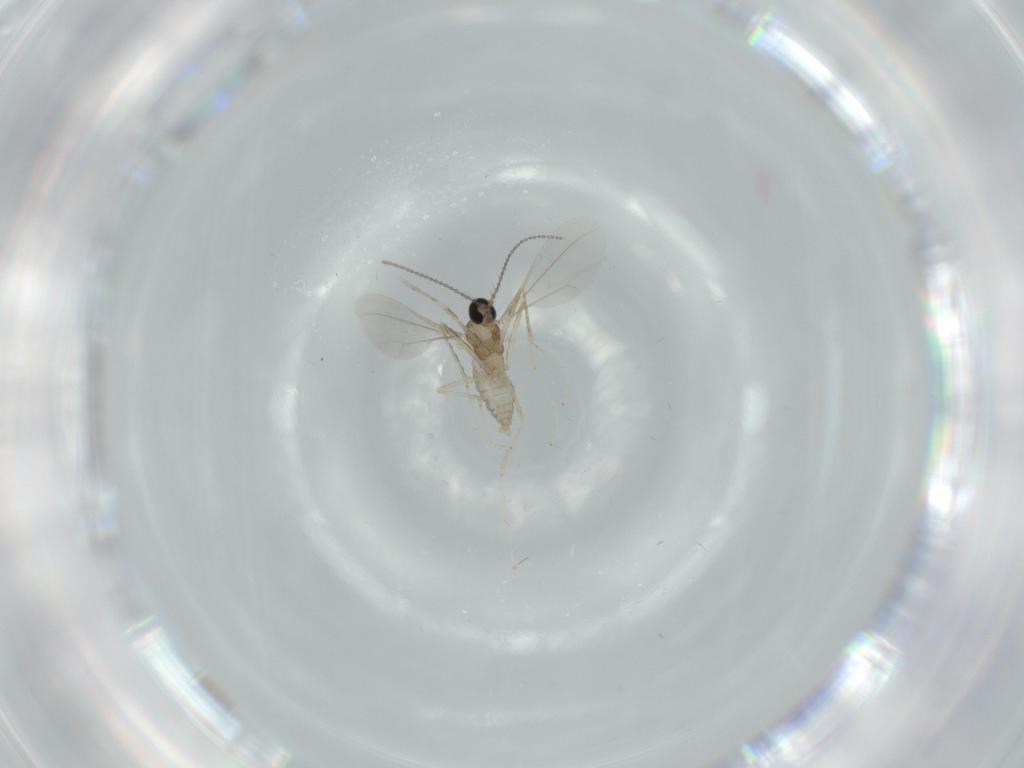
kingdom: Animalia
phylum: Arthropoda
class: Insecta
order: Diptera
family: Cecidomyiidae
